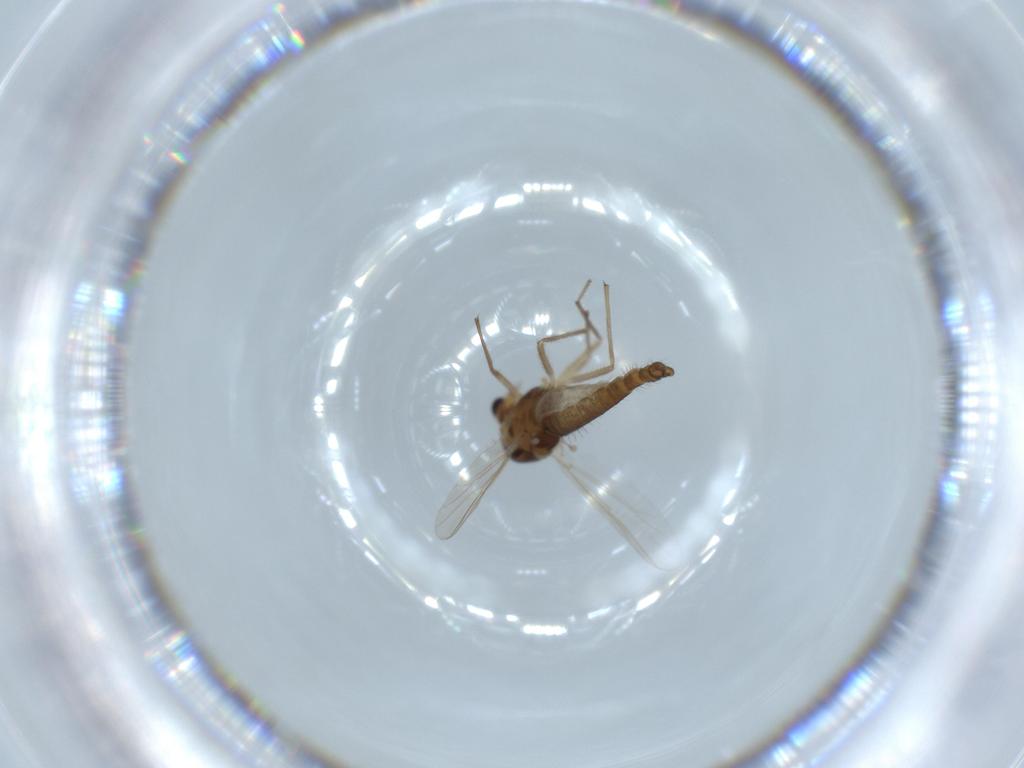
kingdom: Animalia
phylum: Arthropoda
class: Insecta
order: Diptera
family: Chironomidae
